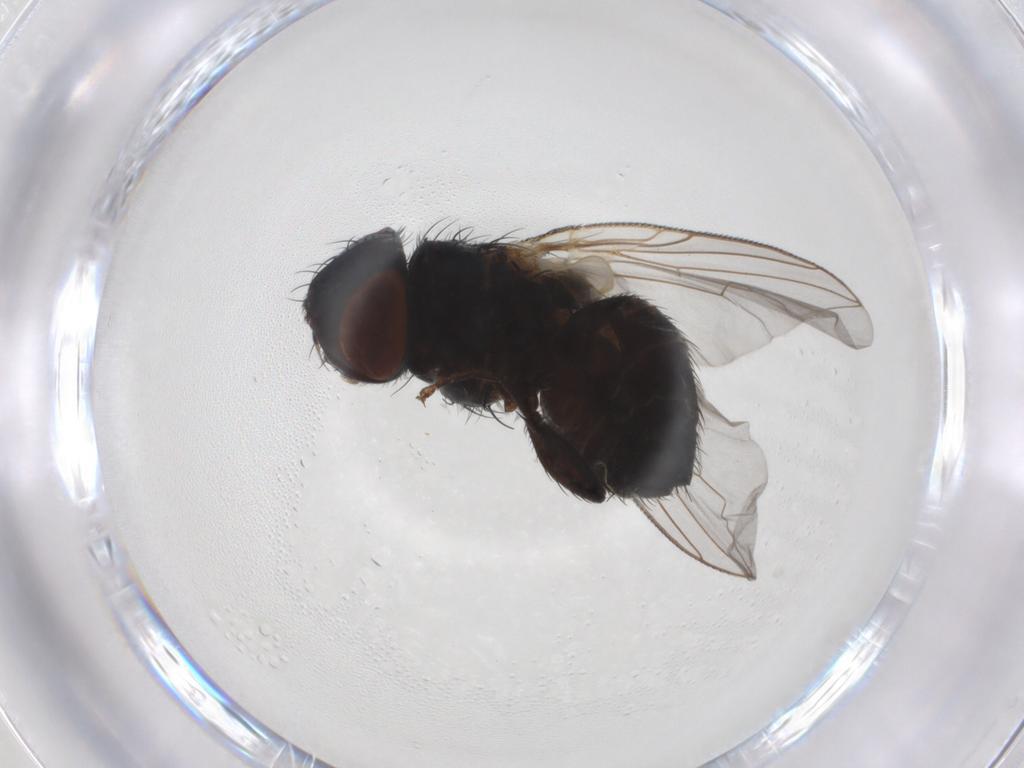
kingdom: Animalia
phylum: Arthropoda
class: Insecta
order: Diptera
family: Sarcophagidae
